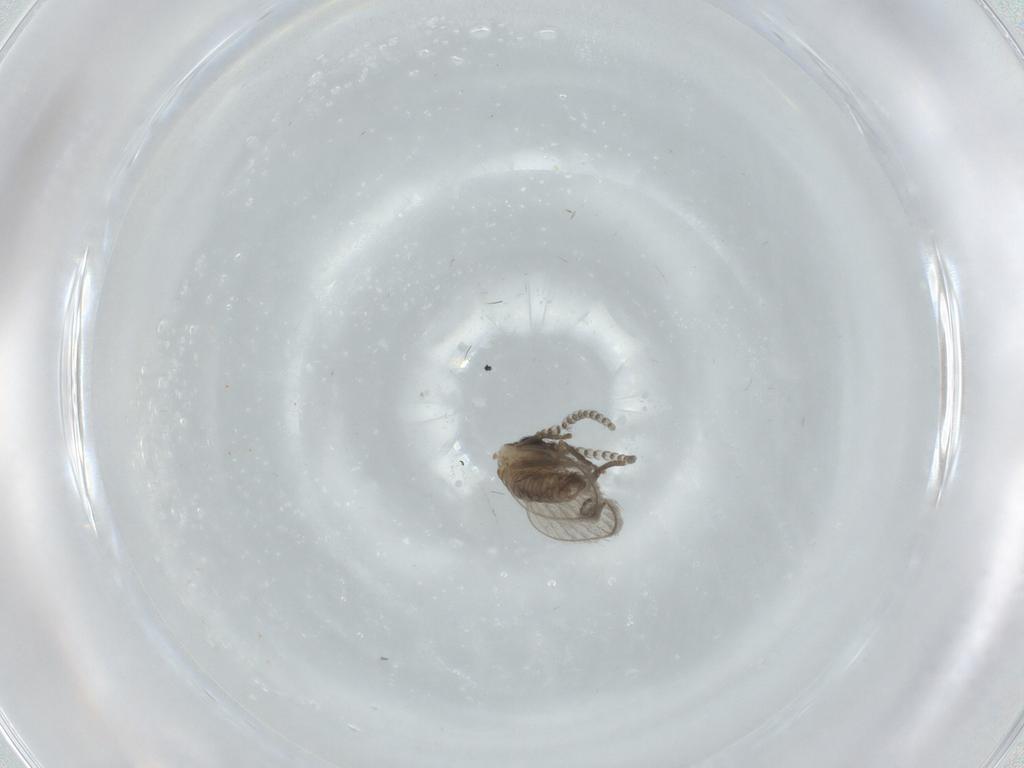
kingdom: Animalia
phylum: Arthropoda
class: Insecta
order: Diptera
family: Psychodidae
